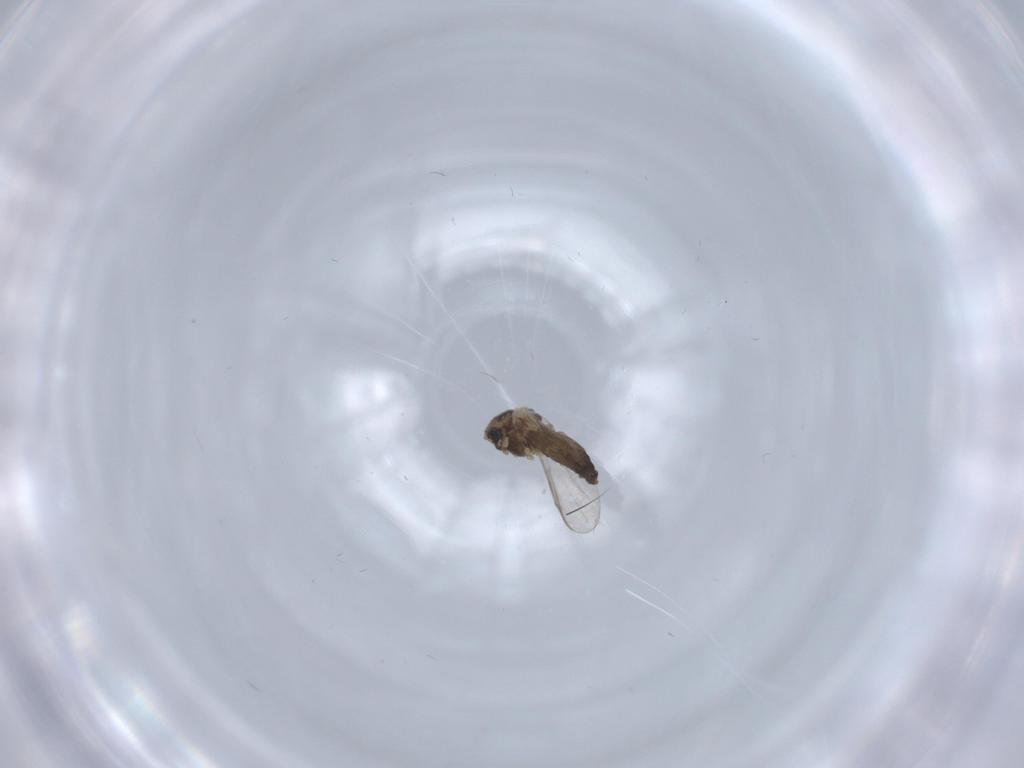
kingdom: Animalia
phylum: Arthropoda
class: Insecta
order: Diptera
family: Chironomidae
